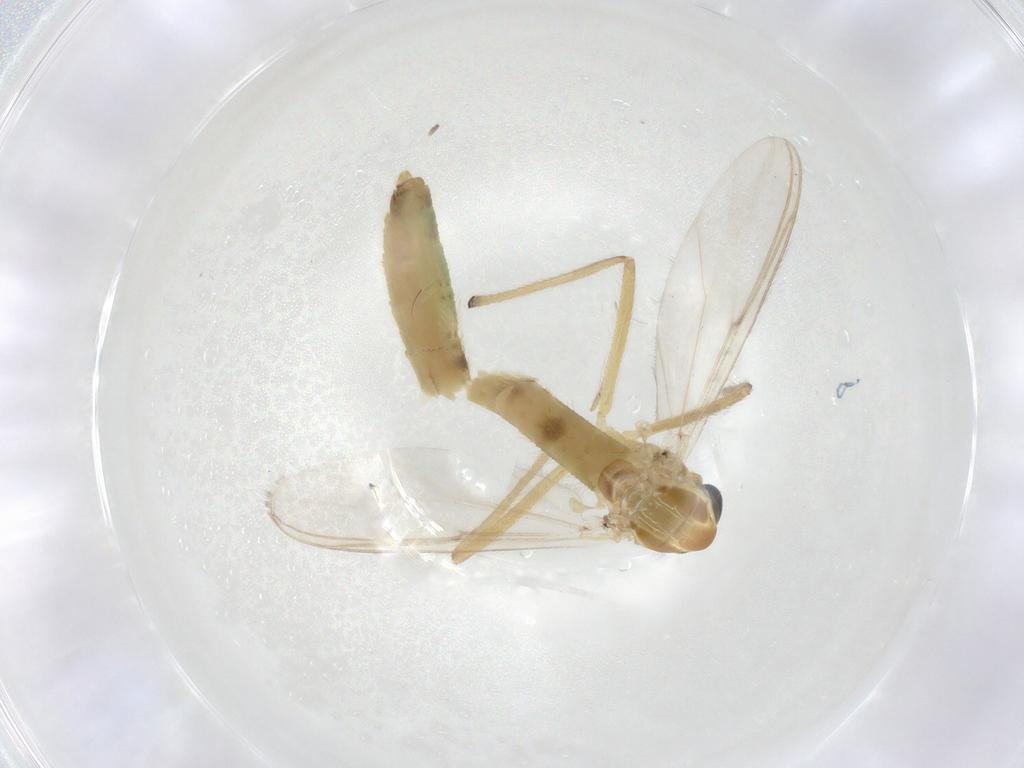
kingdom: Animalia
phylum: Arthropoda
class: Insecta
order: Diptera
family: Chironomidae
